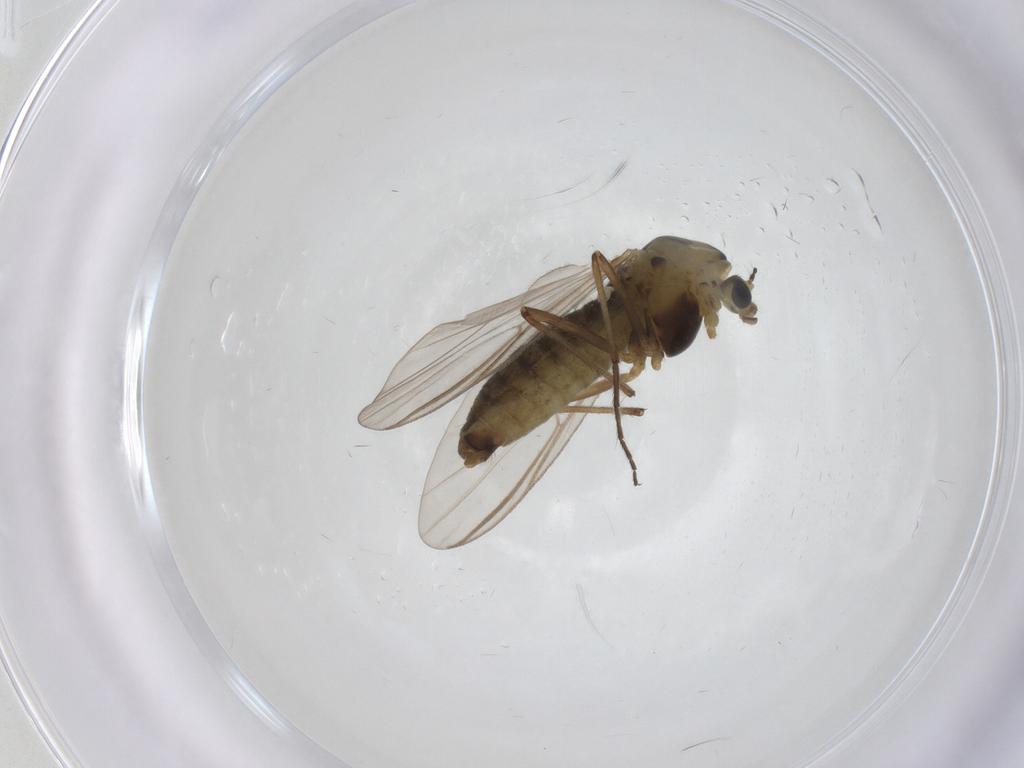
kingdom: Animalia
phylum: Arthropoda
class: Insecta
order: Diptera
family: Chironomidae
